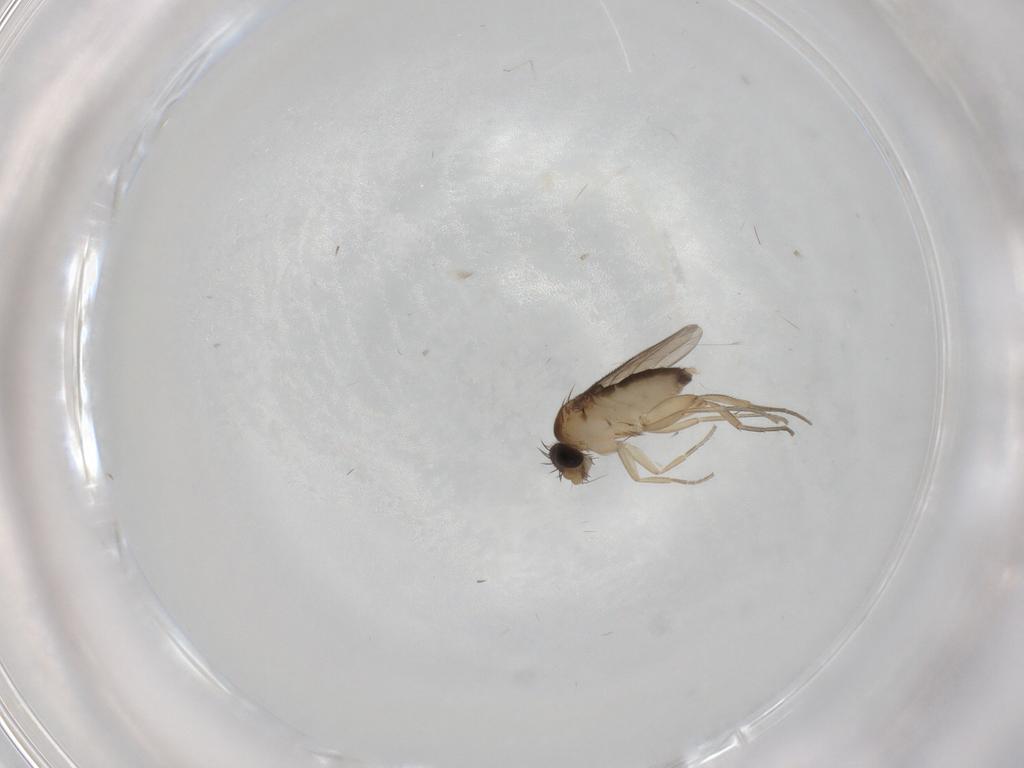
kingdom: Animalia
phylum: Arthropoda
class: Insecta
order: Diptera
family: Phoridae
